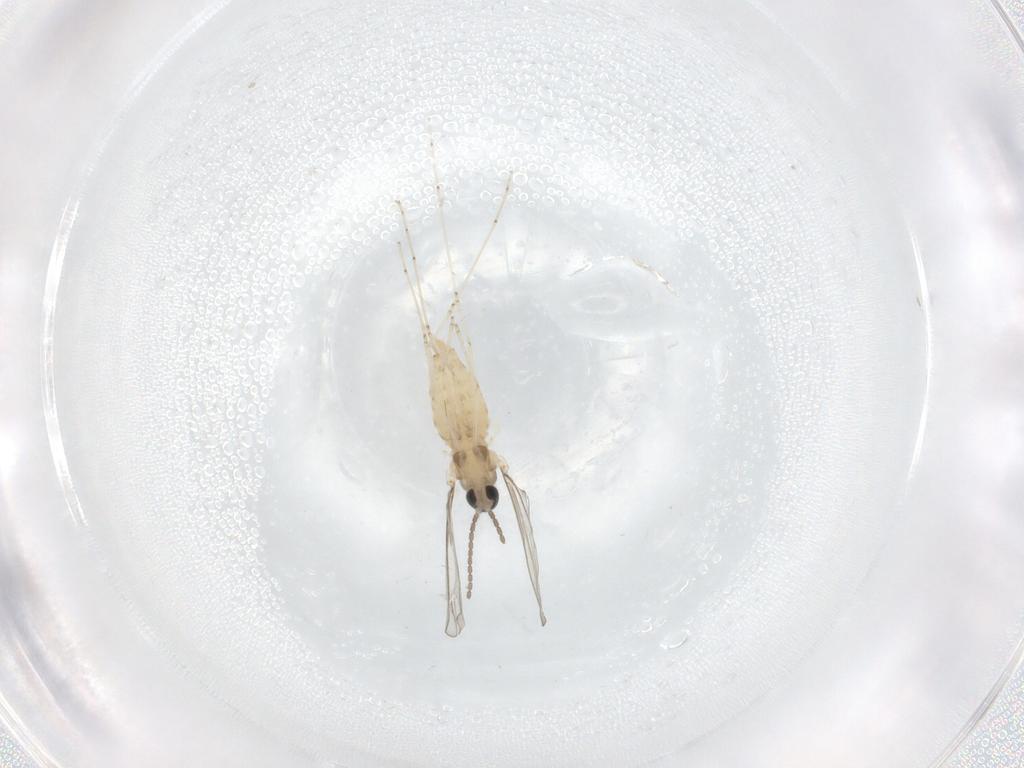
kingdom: Animalia
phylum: Arthropoda
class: Insecta
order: Diptera
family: Cecidomyiidae
